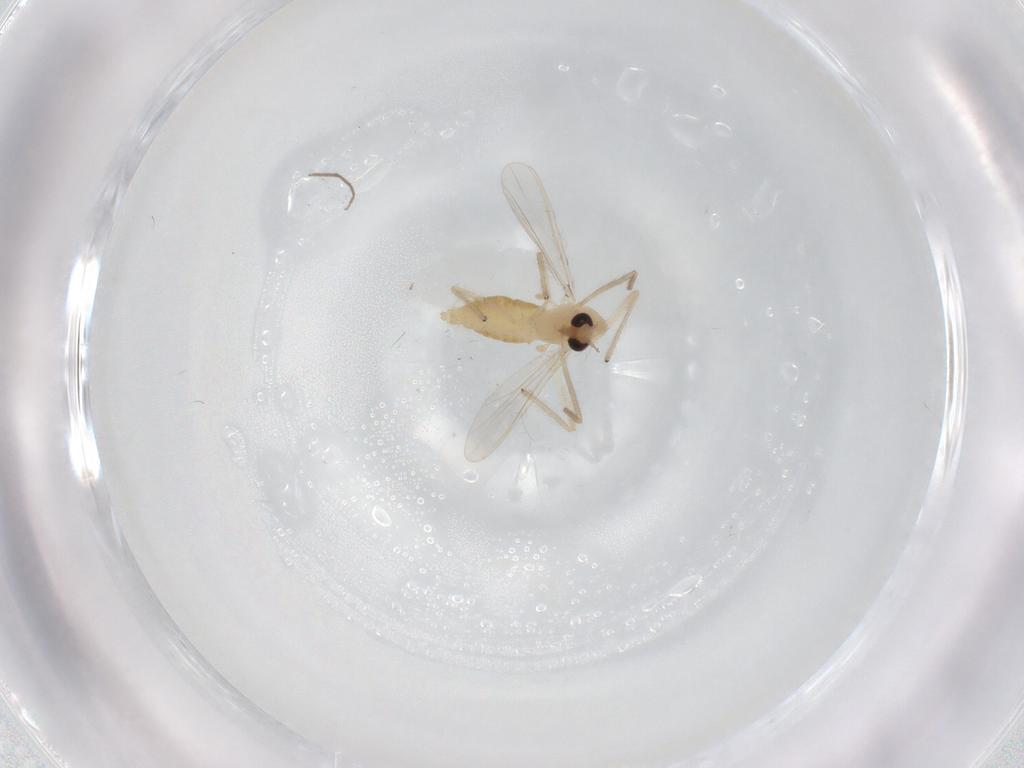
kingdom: Animalia
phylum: Arthropoda
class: Insecta
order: Diptera
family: Chironomidae
